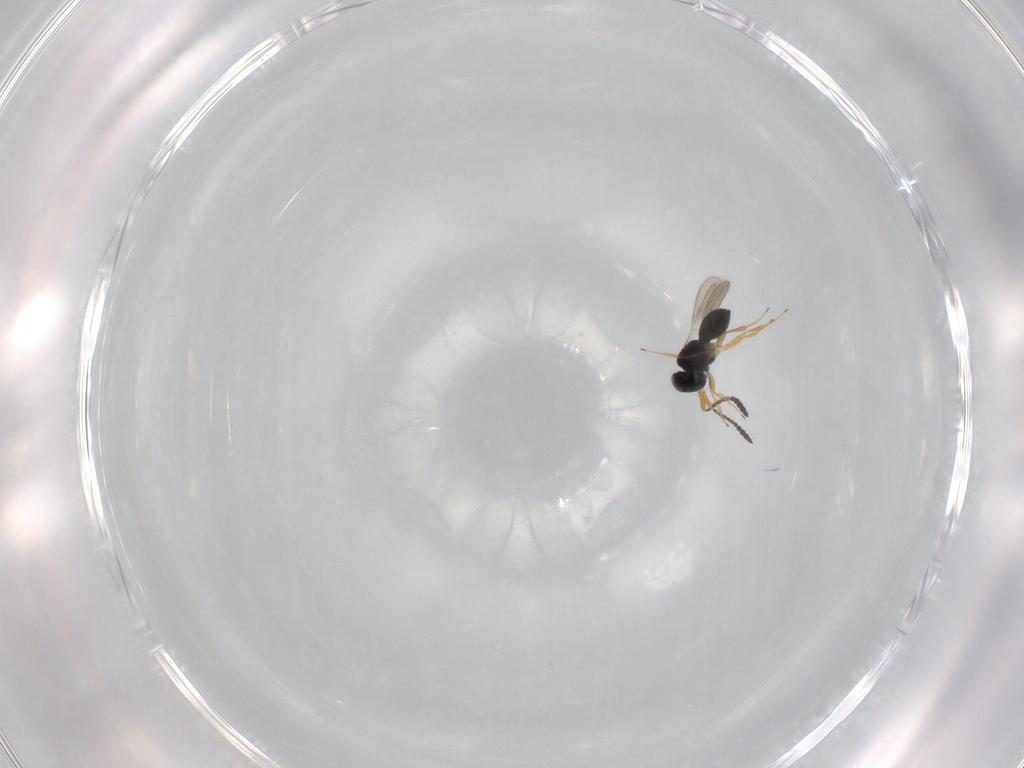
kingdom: Animalia
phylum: Arthropoda
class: Insecta
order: Hymenoptera
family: Scelionidae
